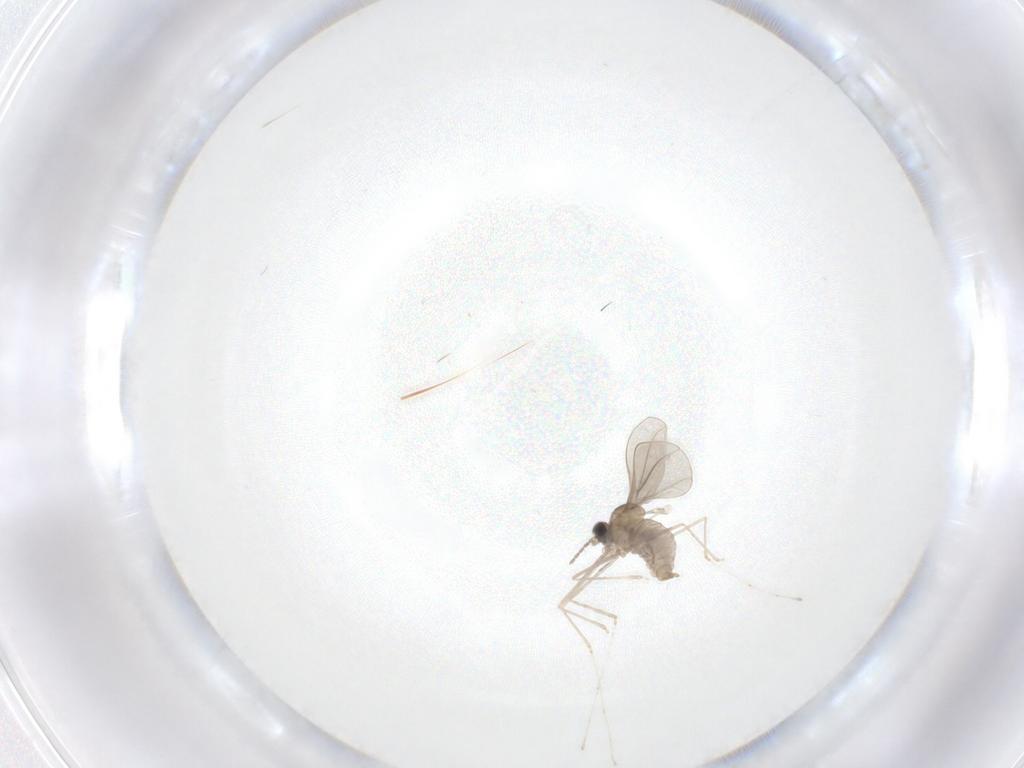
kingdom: Animalia
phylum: Arthropoda
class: Insecta
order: Diptera
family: Cecidomyiidae
